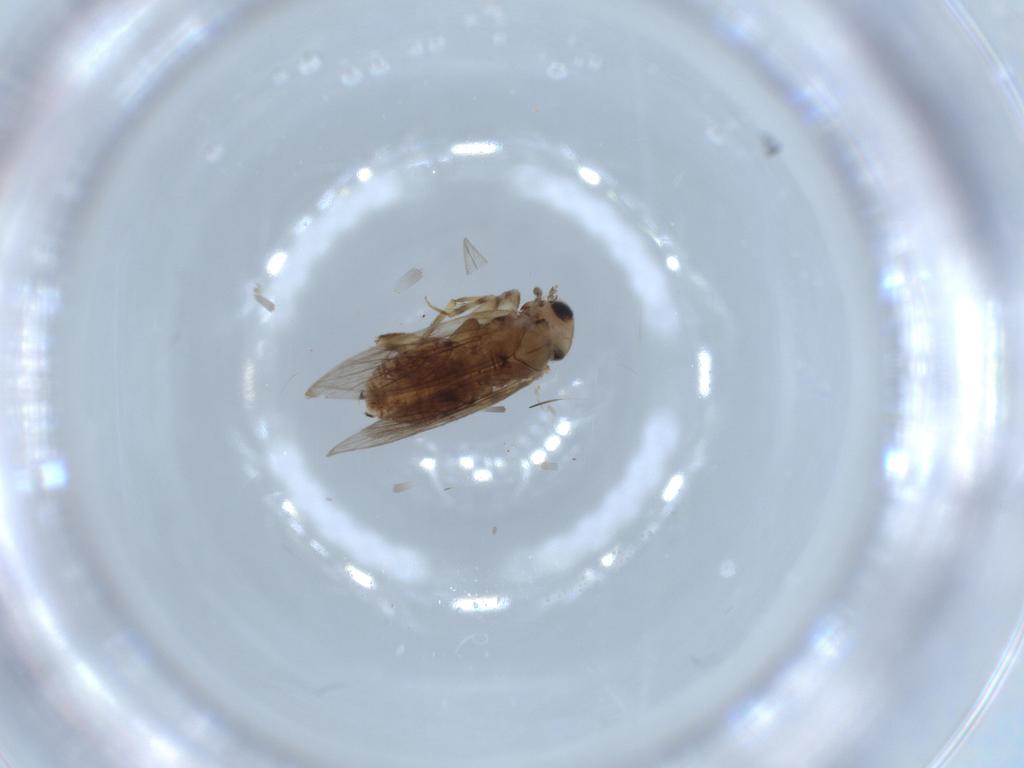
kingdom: Animalia
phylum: Arthropoda
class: Insecta
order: Psocodea
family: Lepidopsocidae
